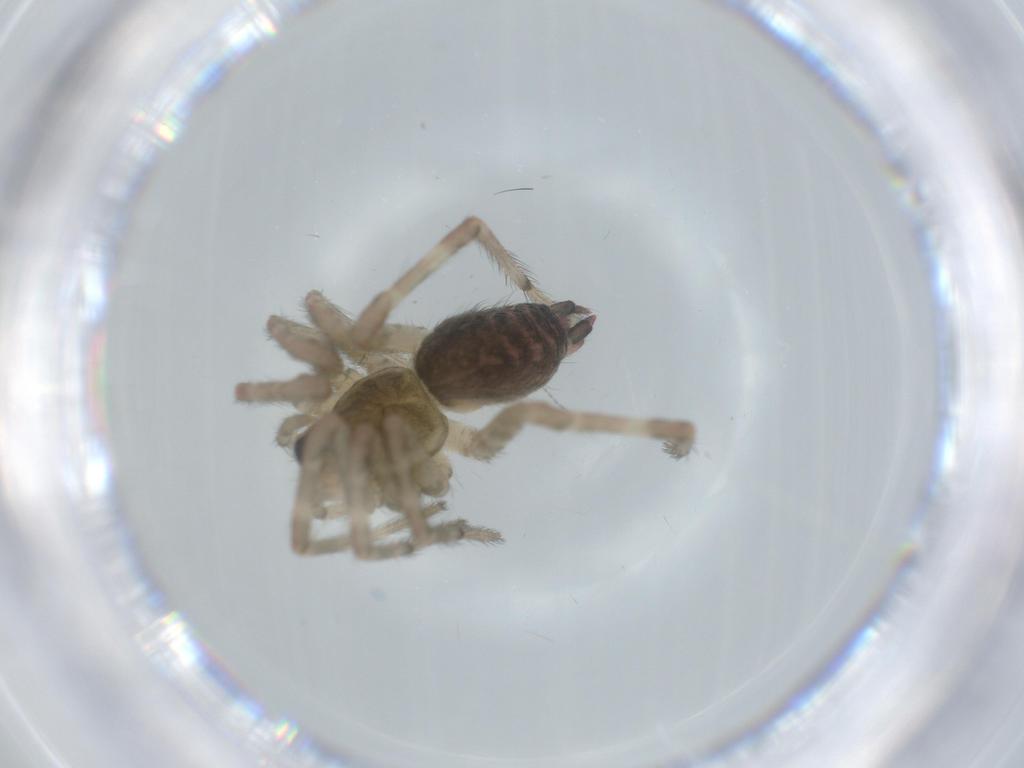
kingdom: Animalia
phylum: Arthropoda
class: Arachnida
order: Araneae
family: Agelenidae
